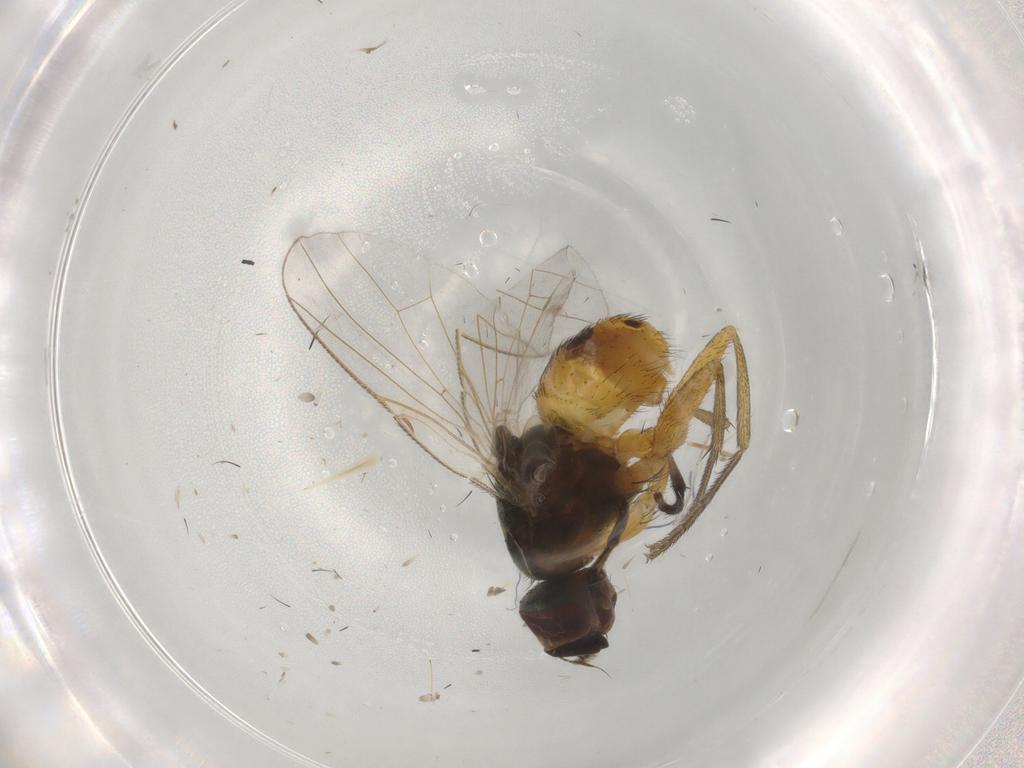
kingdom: Animalia
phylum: Arthropoda
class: Insecta
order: Diptera
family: Muscidae
